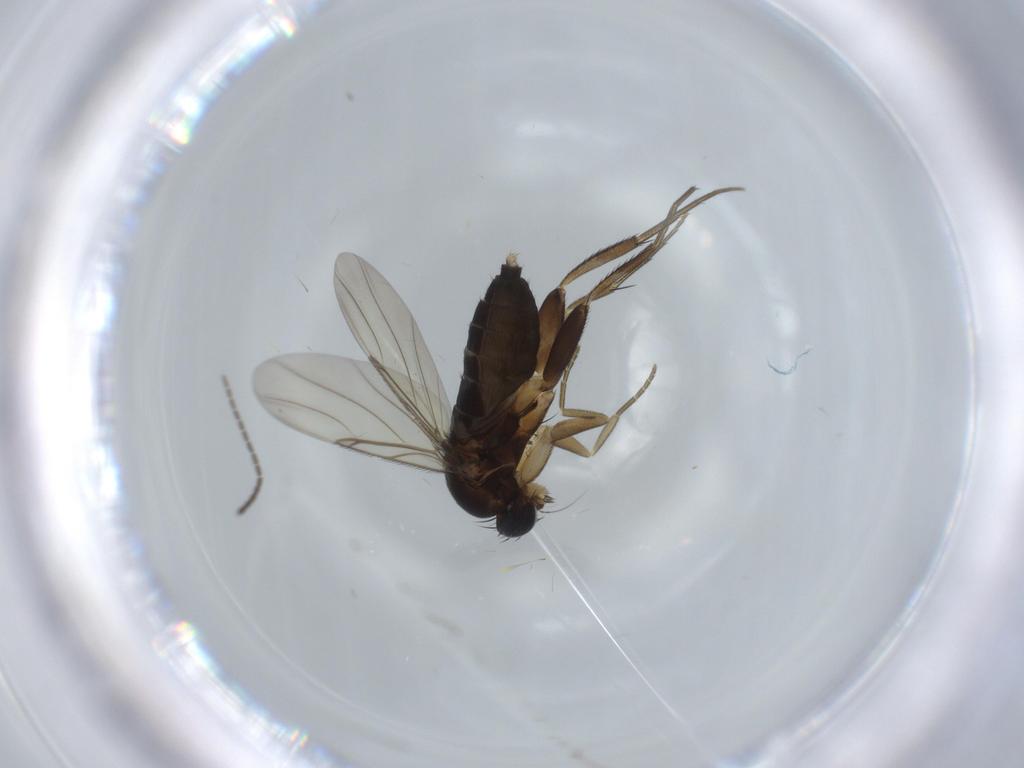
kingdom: Animalia
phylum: Arthropoda
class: Insecta
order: Diptera
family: Phoridae
